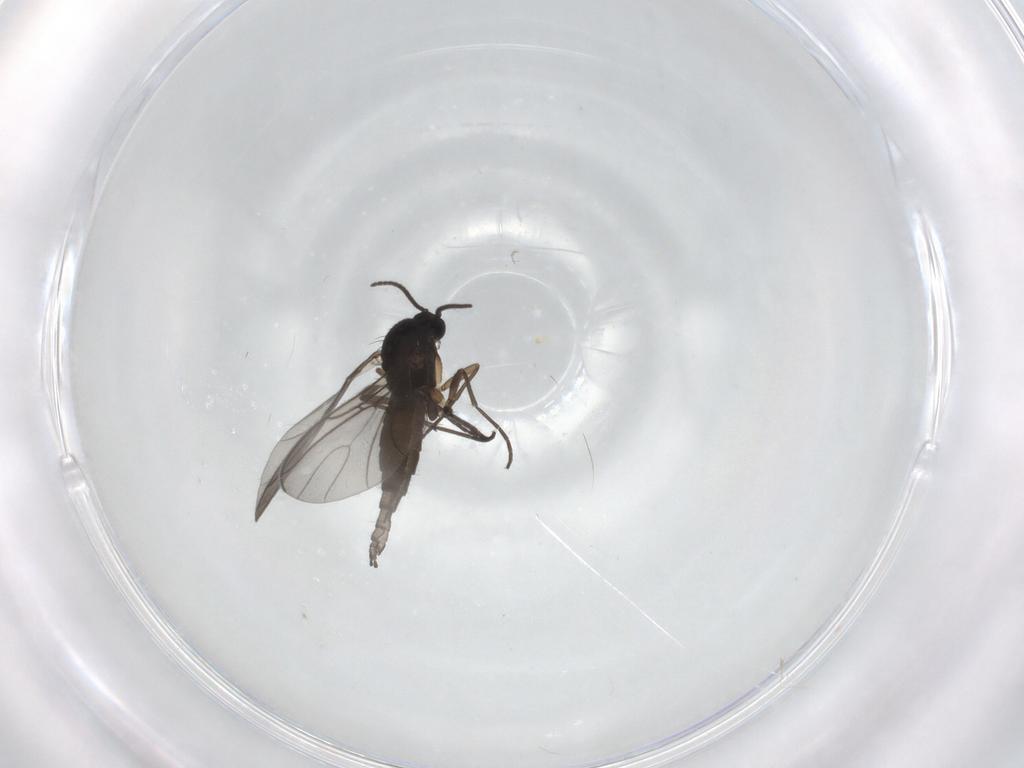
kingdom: Animalia
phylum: Arthropoda
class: Insecta
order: Diptera
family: Sciaridae
